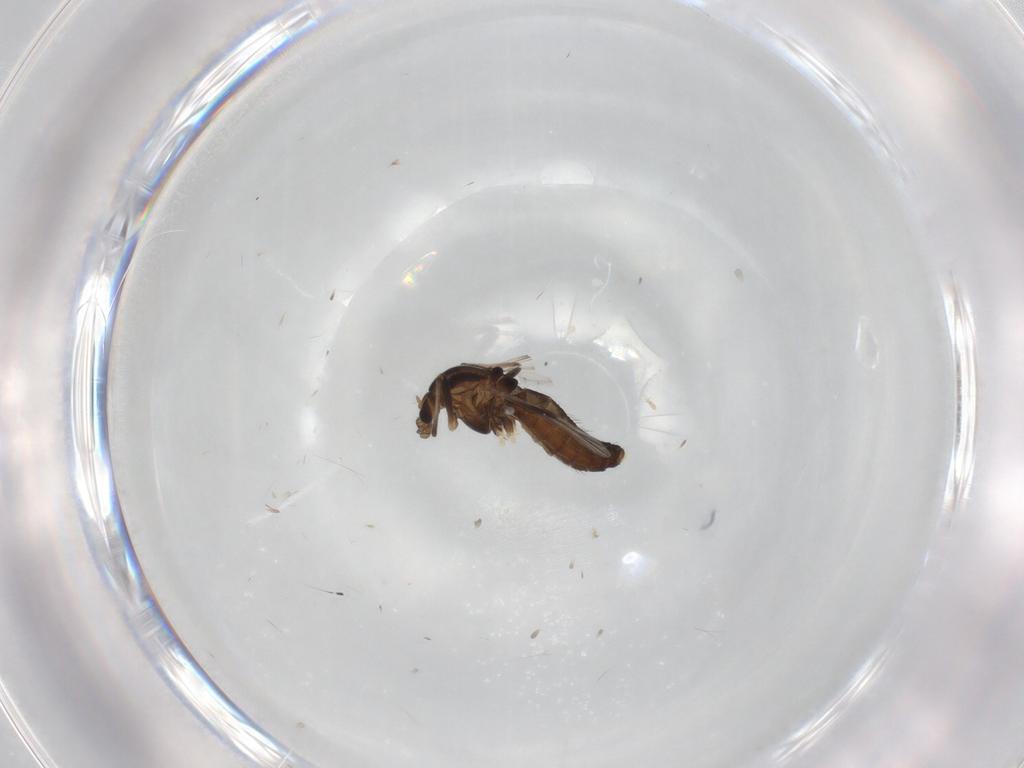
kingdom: Animalia
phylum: Arthropoda
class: Insecta
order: Diptera
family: Chironomidae
